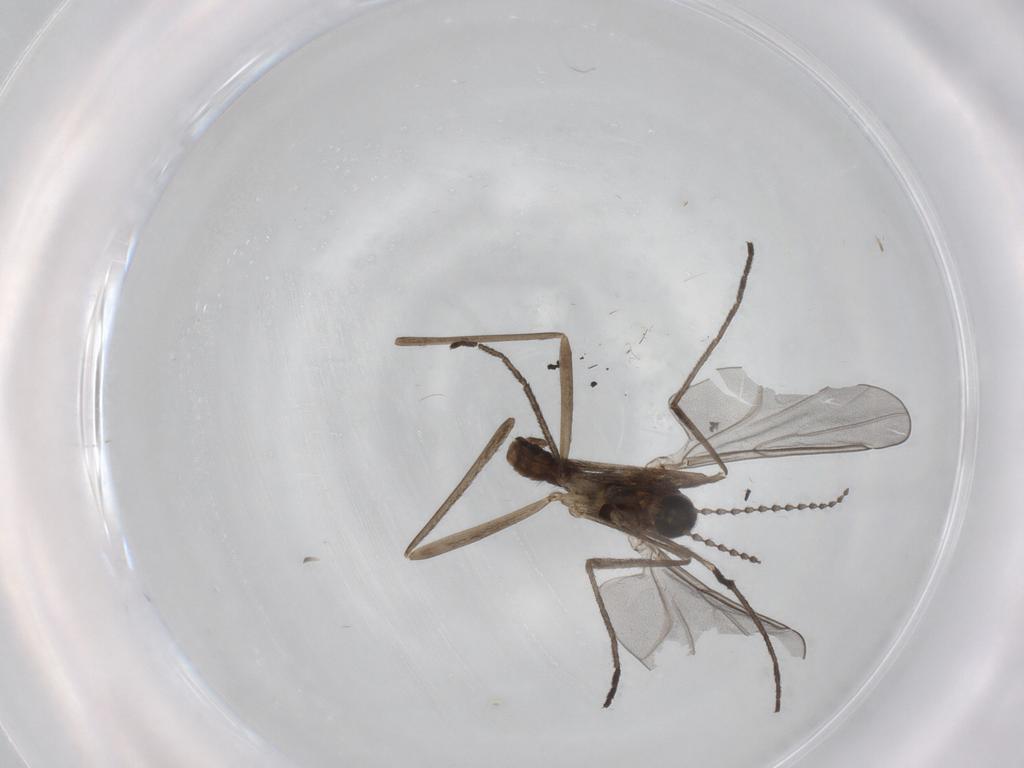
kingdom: Animalia
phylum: Arthropoda
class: Insecta
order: Diptera
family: Cecidomyiidae
